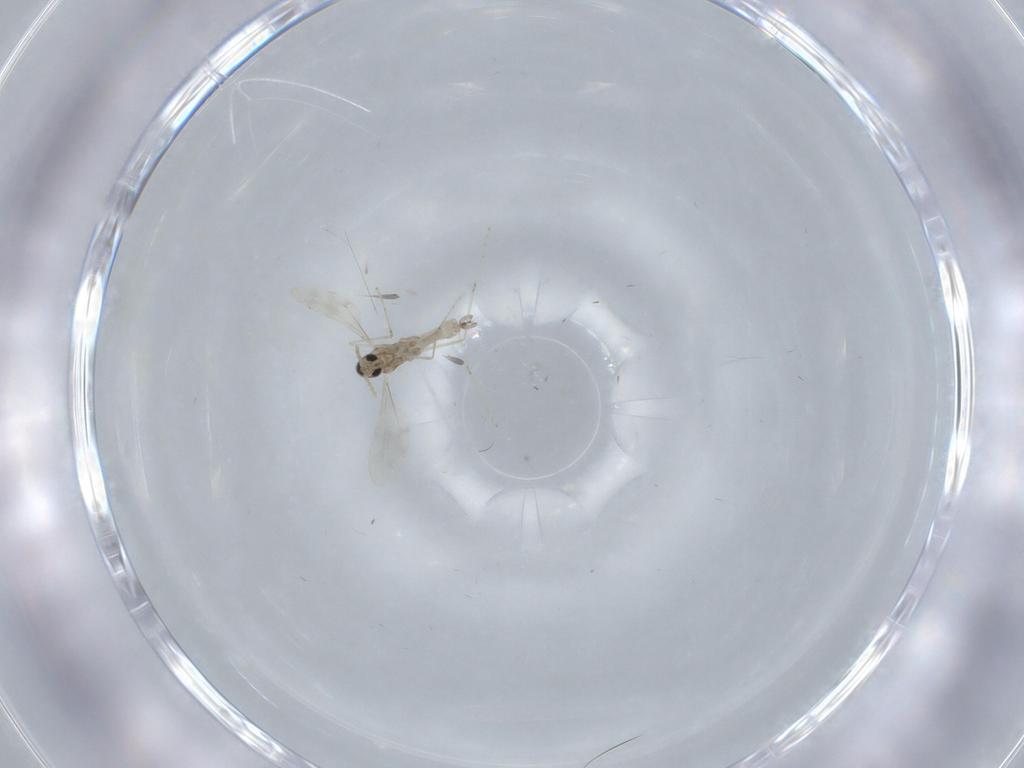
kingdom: Animalia
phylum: Arthropoda
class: Insecta
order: Diptera
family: Cecidomyiidae
